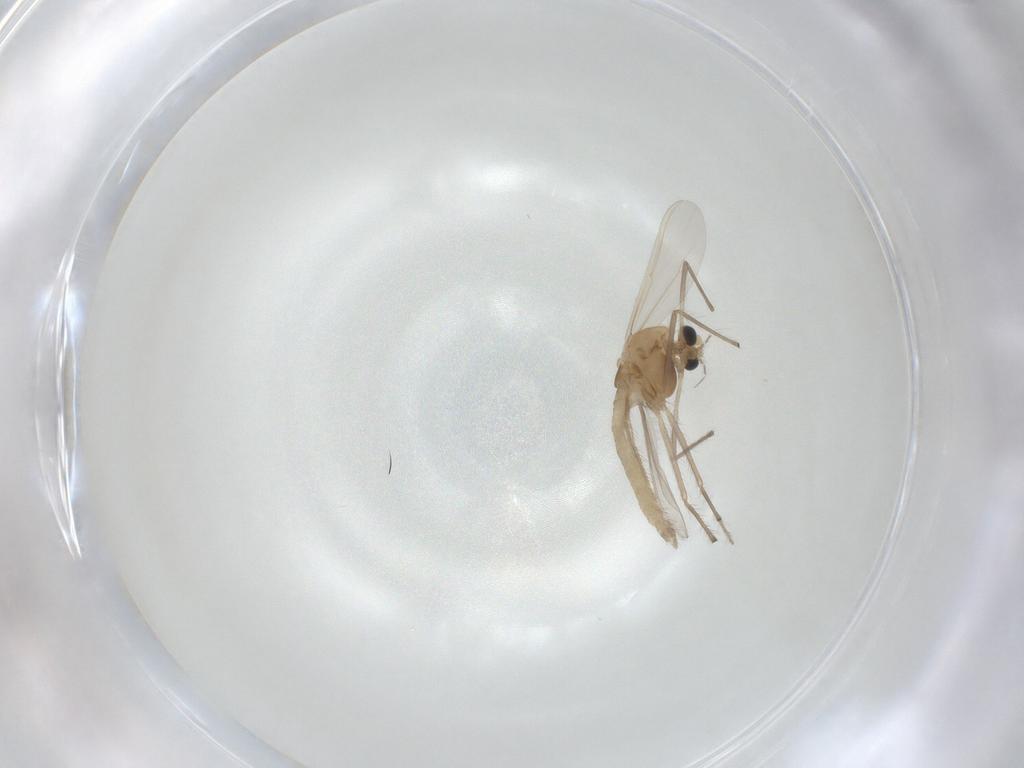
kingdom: Animalia
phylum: Arthropoda
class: Insecta
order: Diptera
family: Chironomidae
